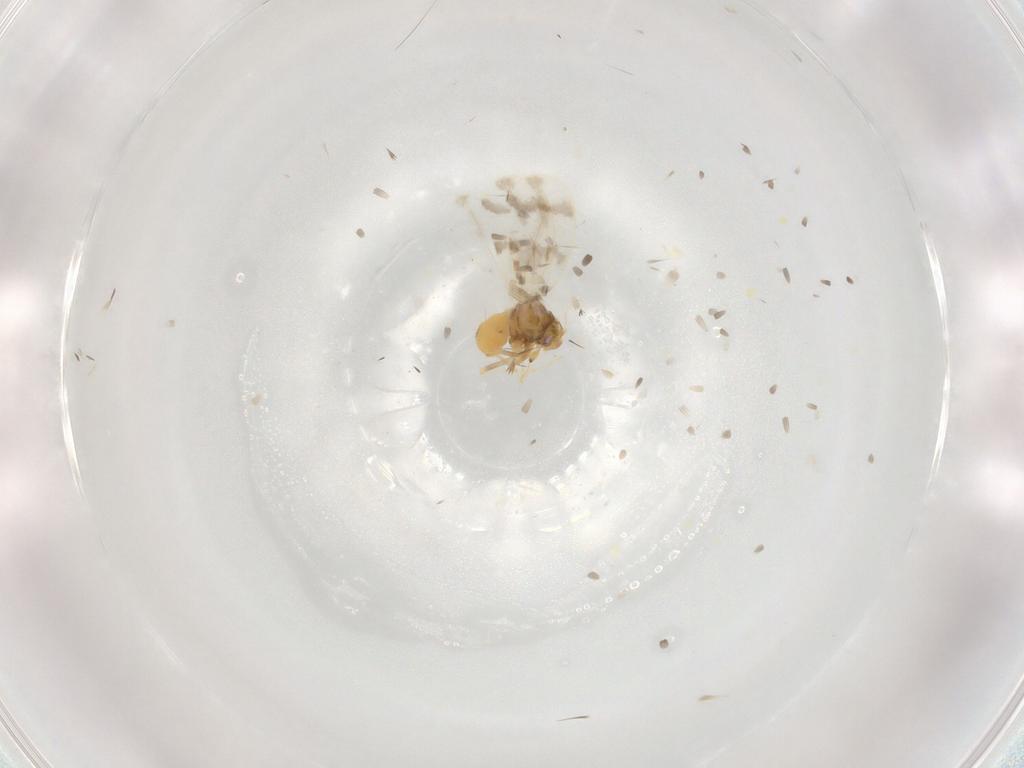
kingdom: Animalia
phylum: Arthropoda
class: Insecta
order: Hemiptera
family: Aleyrodidae
